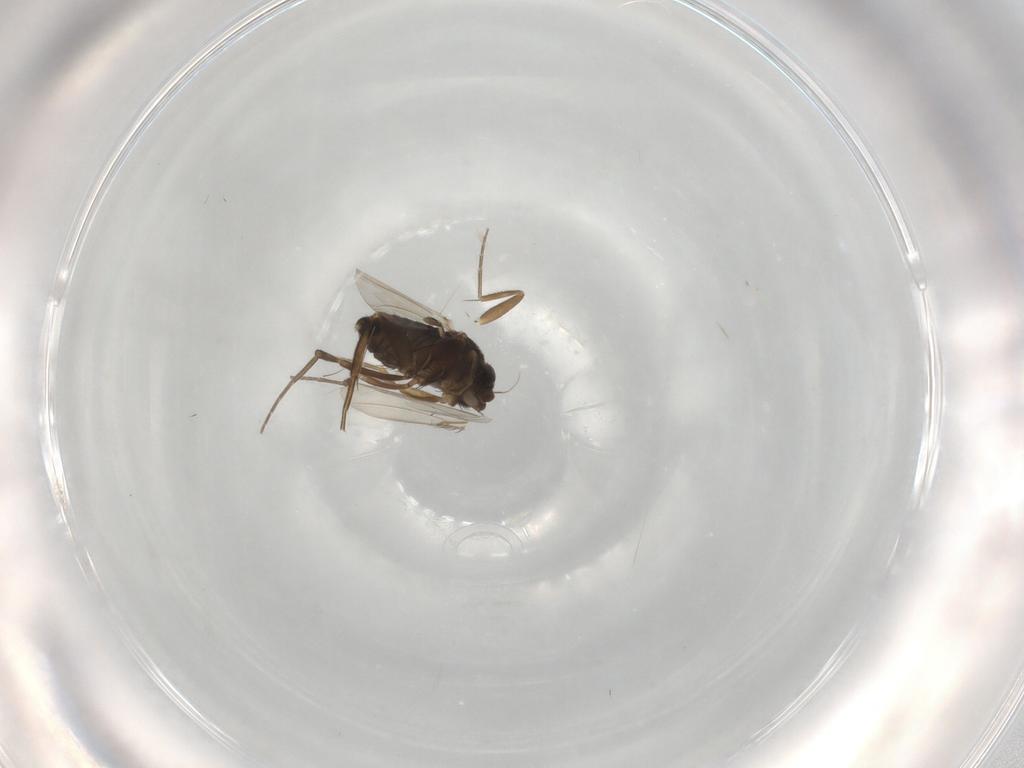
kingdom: Animalia
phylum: Arthropoda
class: Insecta
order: Diptera
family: Phoridae
